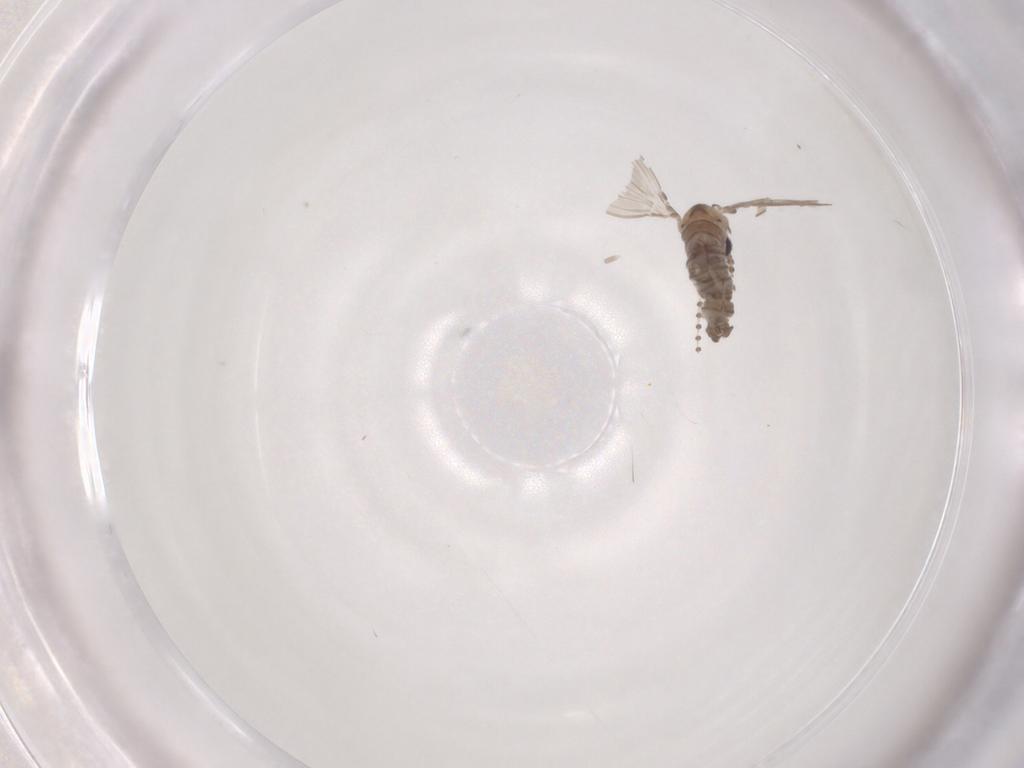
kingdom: Animalia
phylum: Arthropoda
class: Insecta
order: Diptera
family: Psychodidae
